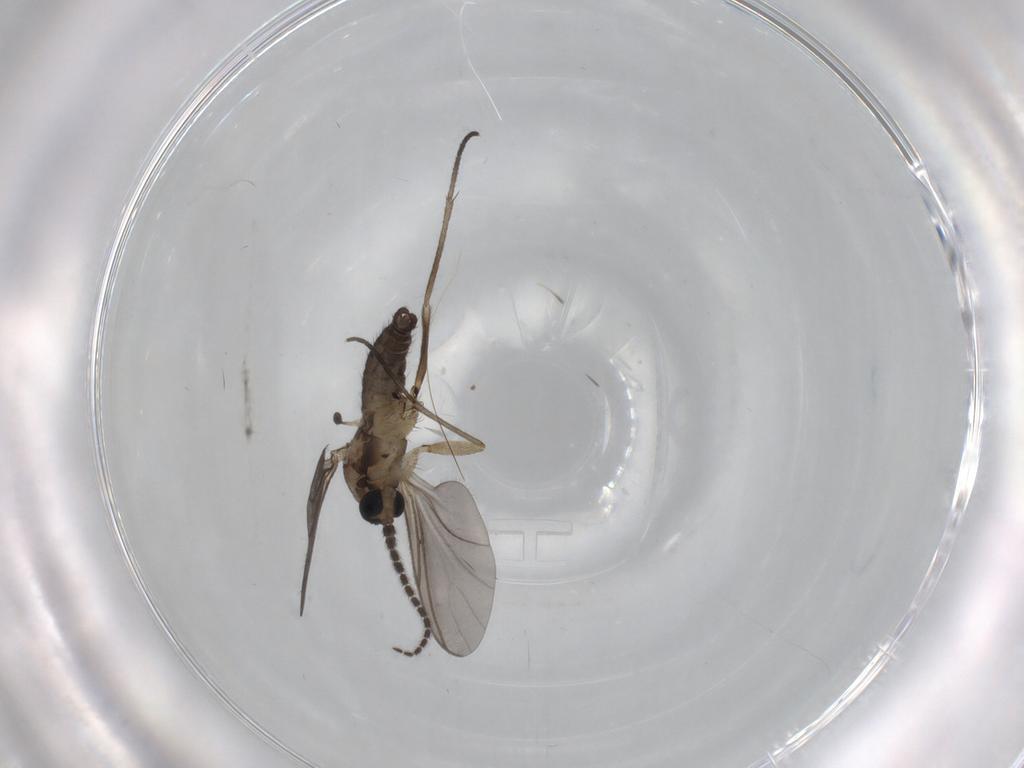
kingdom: Animalia
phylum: Arthropoda
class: Insecta
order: Diptera
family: Sciaridae
